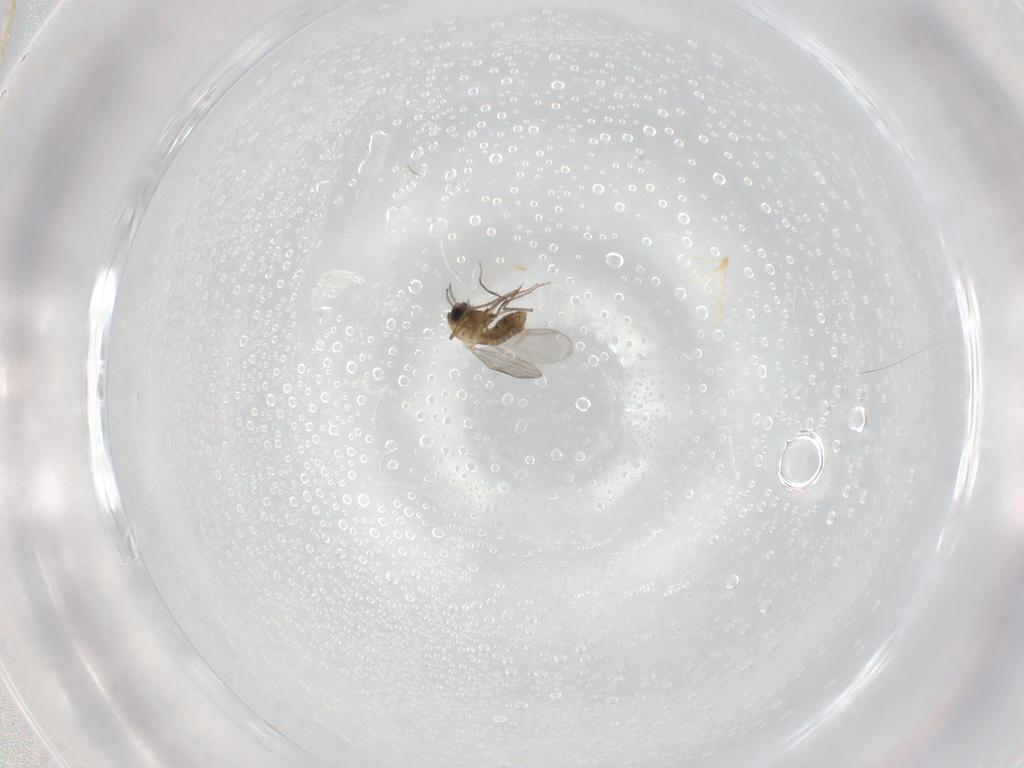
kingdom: Animalia
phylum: Arthropoda
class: Insecta
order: Diptera
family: Chironomidae
